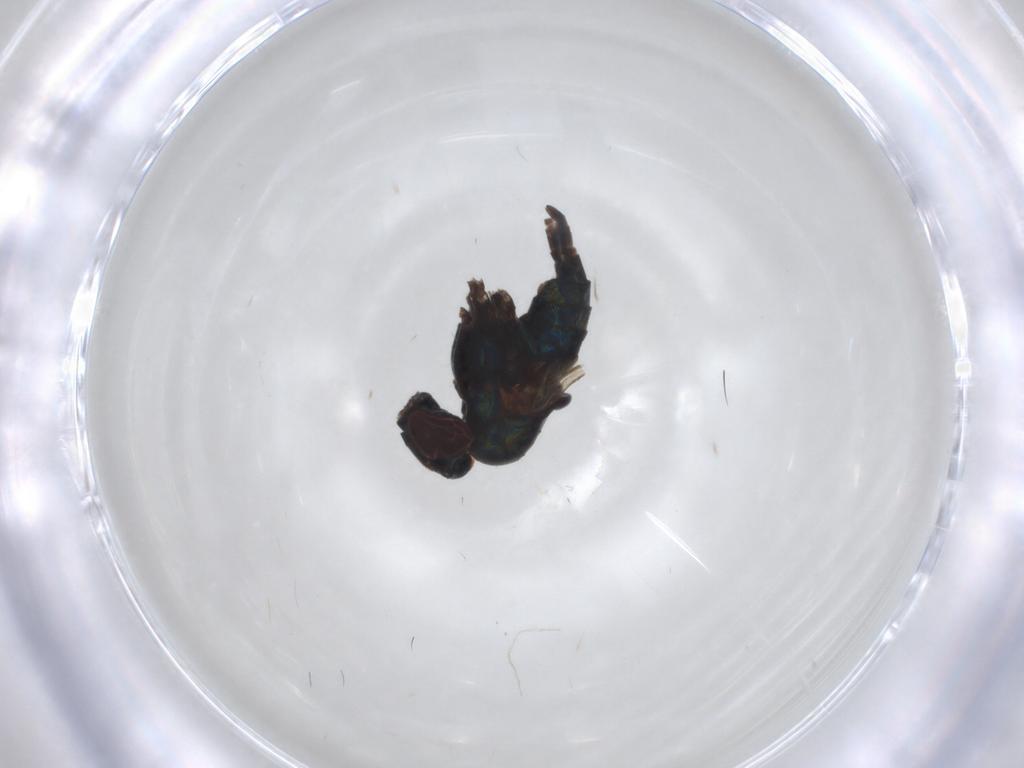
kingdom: Animalia
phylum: Arthropoda
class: Insecta
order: Diptera
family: Dolichopodidae
